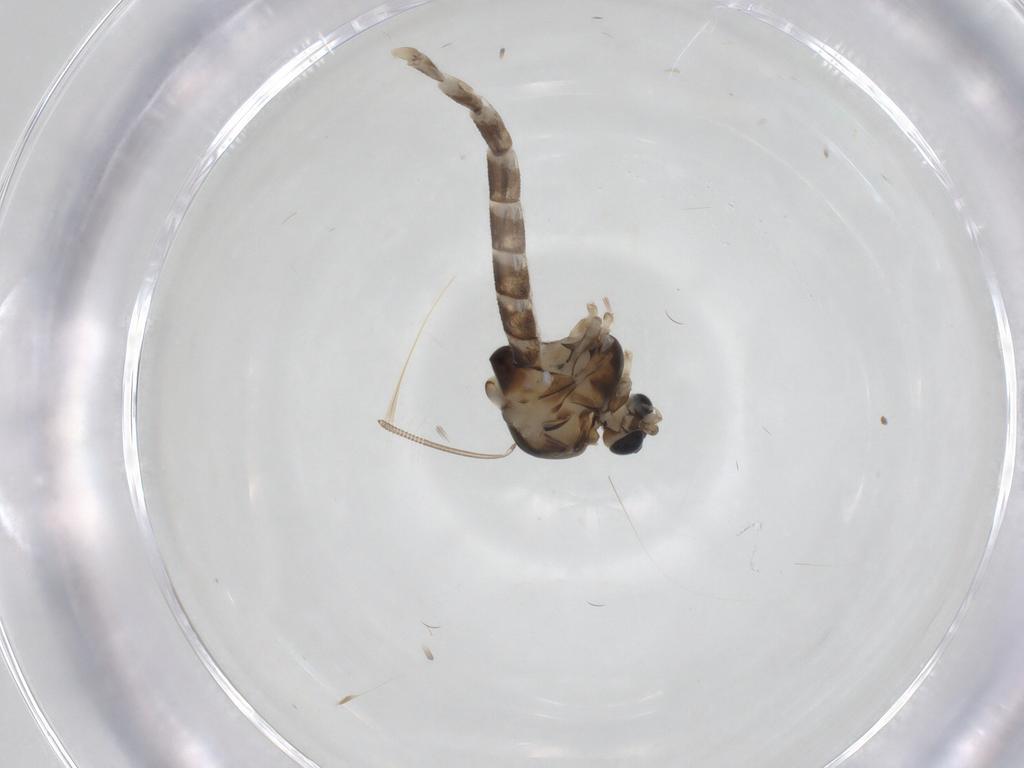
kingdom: Animalia
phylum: Arthropoda
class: Insecta
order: Diptera
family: Chironomidae
